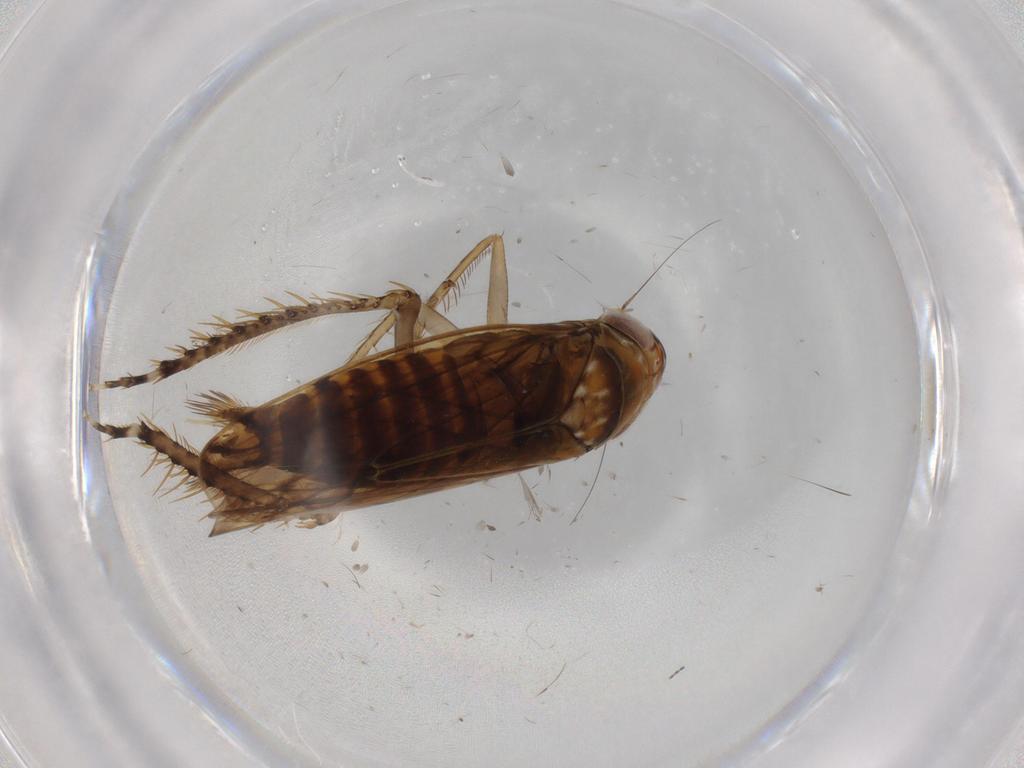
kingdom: Animalia
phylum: Arthropoda
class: Insecta
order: Hemiptera
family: Cicadellidae
